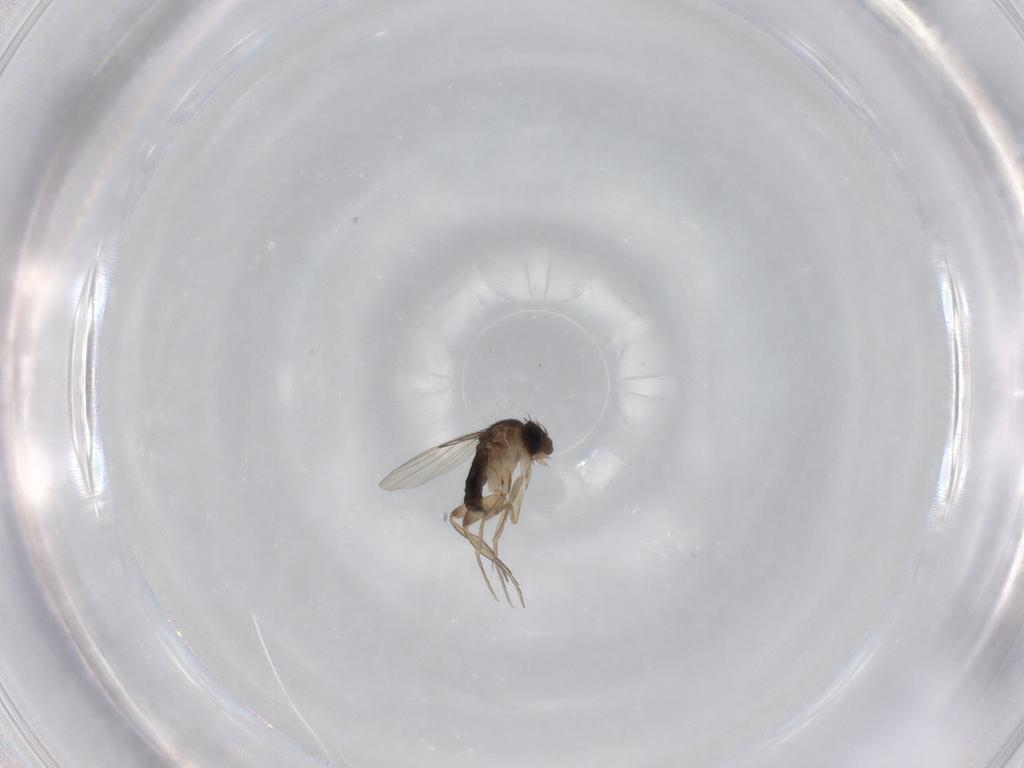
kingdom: Animalia
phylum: Arthropoda
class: Insecta
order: Diptera
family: Phoridae
